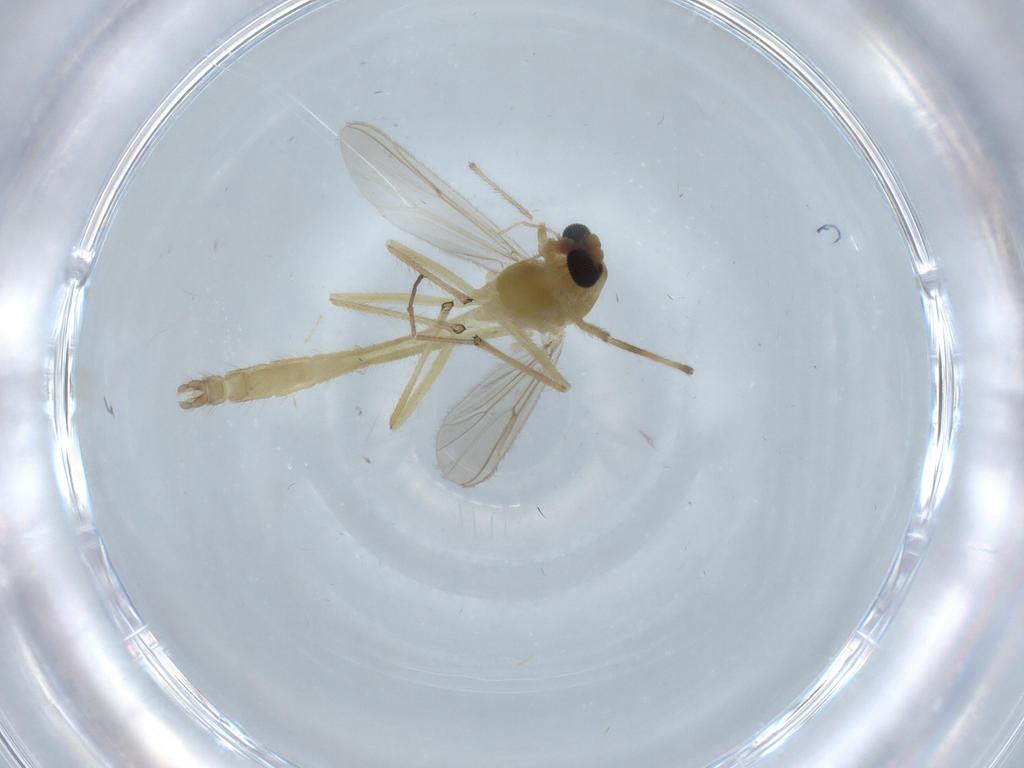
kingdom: Animalia
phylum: Arthropoda
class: Insecta
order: Diptera
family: Chironomidae
